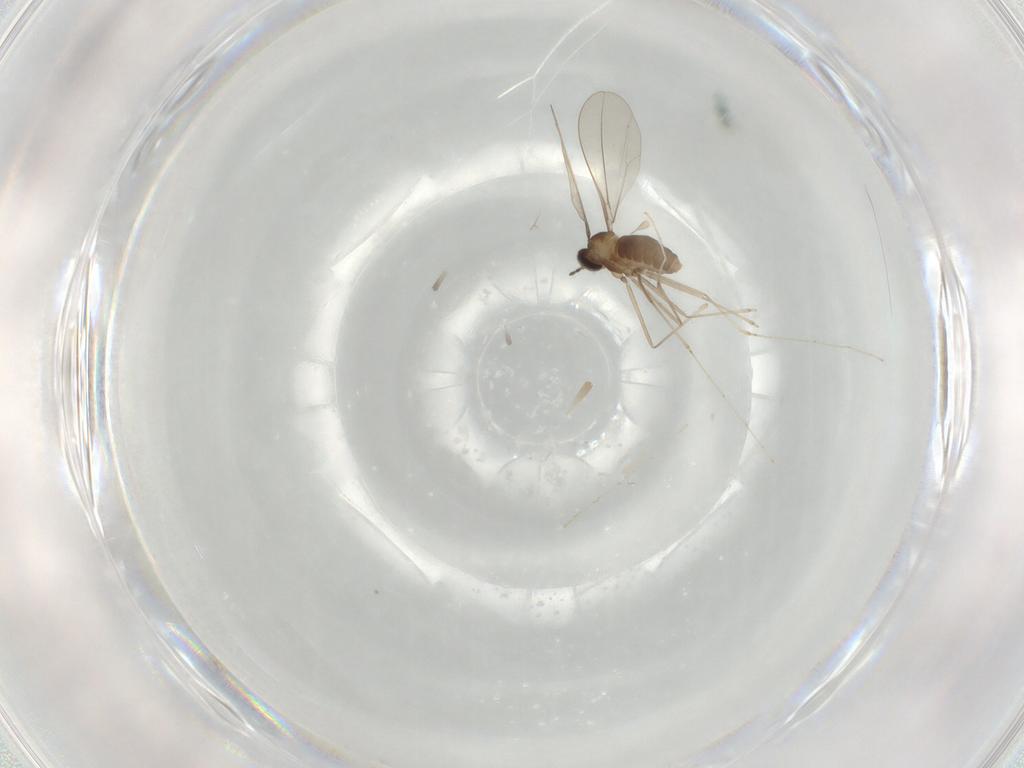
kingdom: Animalia
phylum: Arthropoda
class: Insecta
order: Diptera
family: Cecidomyiidae
